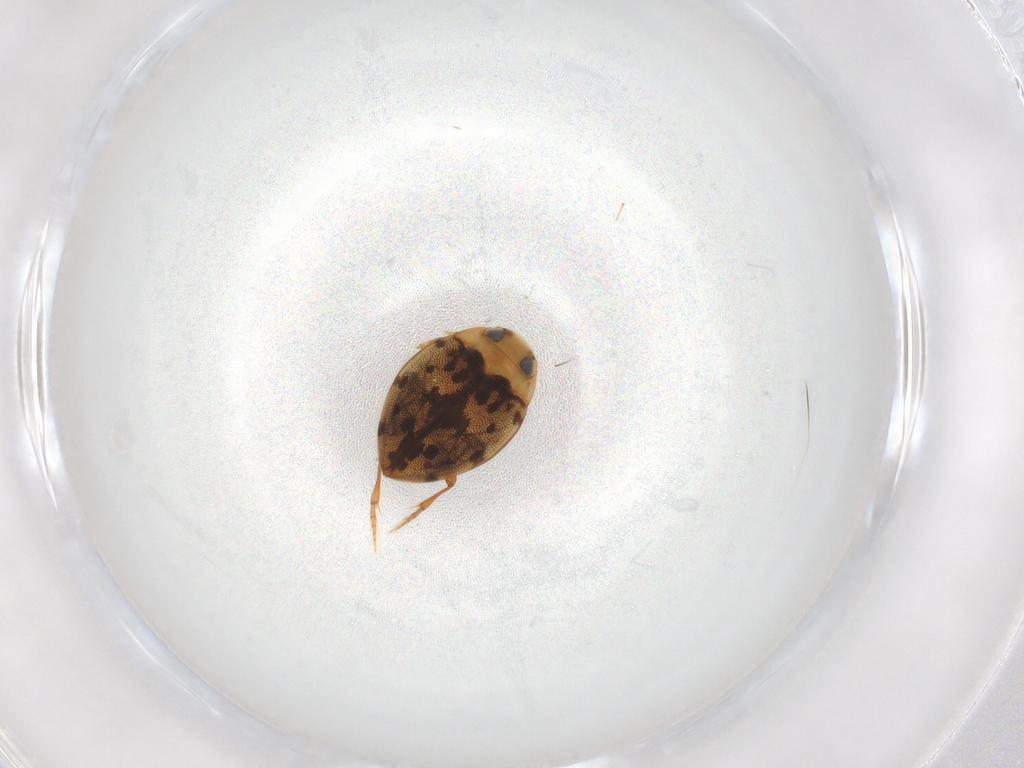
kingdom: Animalia
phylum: Arthropoda
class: Insecta
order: Coleoptera
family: Dytiscidae
